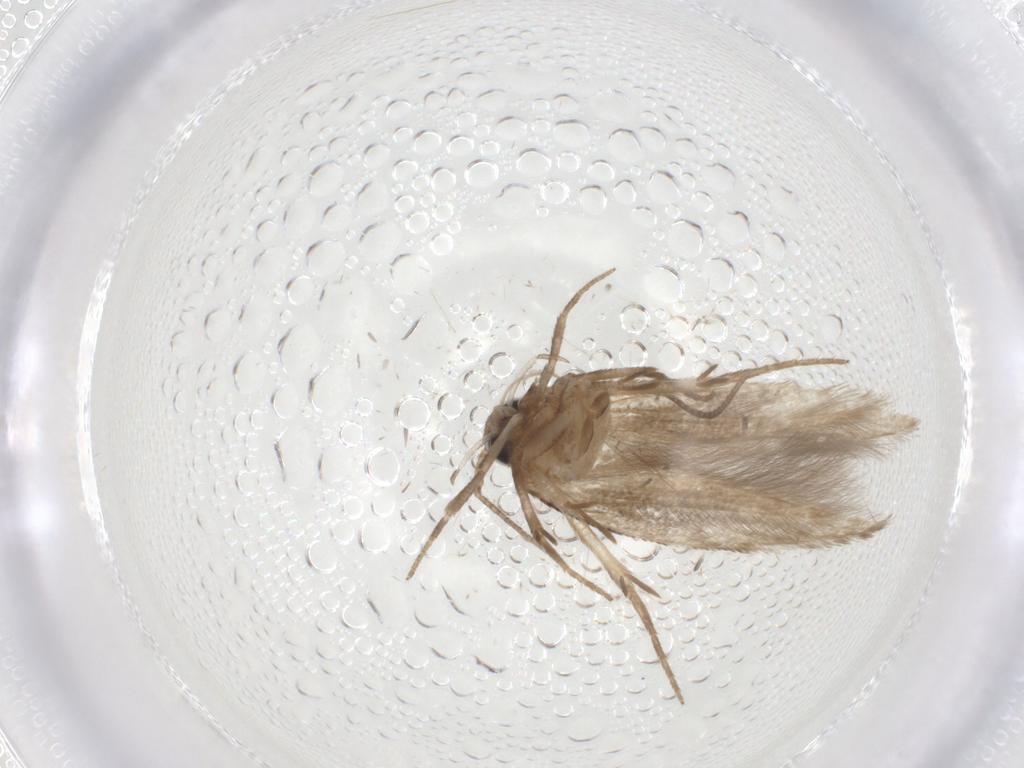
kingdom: Animalia
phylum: Arthropoda
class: Insecta
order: Lepidoptera
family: Cosmopterigidae
